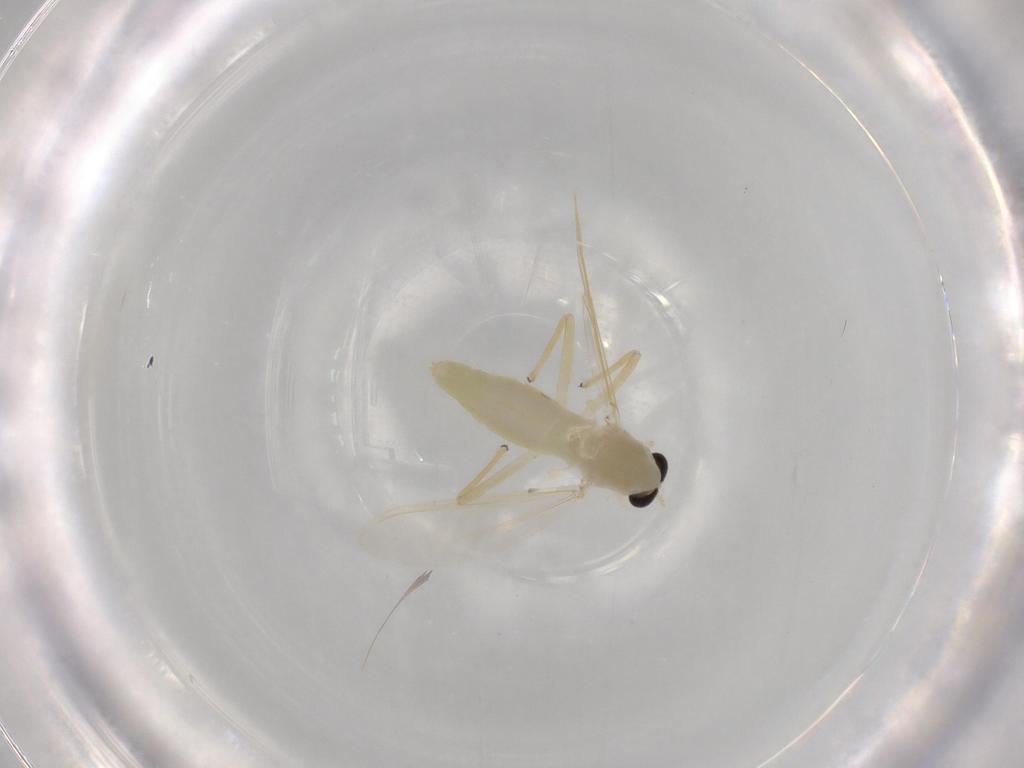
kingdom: Animalia
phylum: Arthropoda
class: Insecta
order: Diptera
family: Chironomidae
